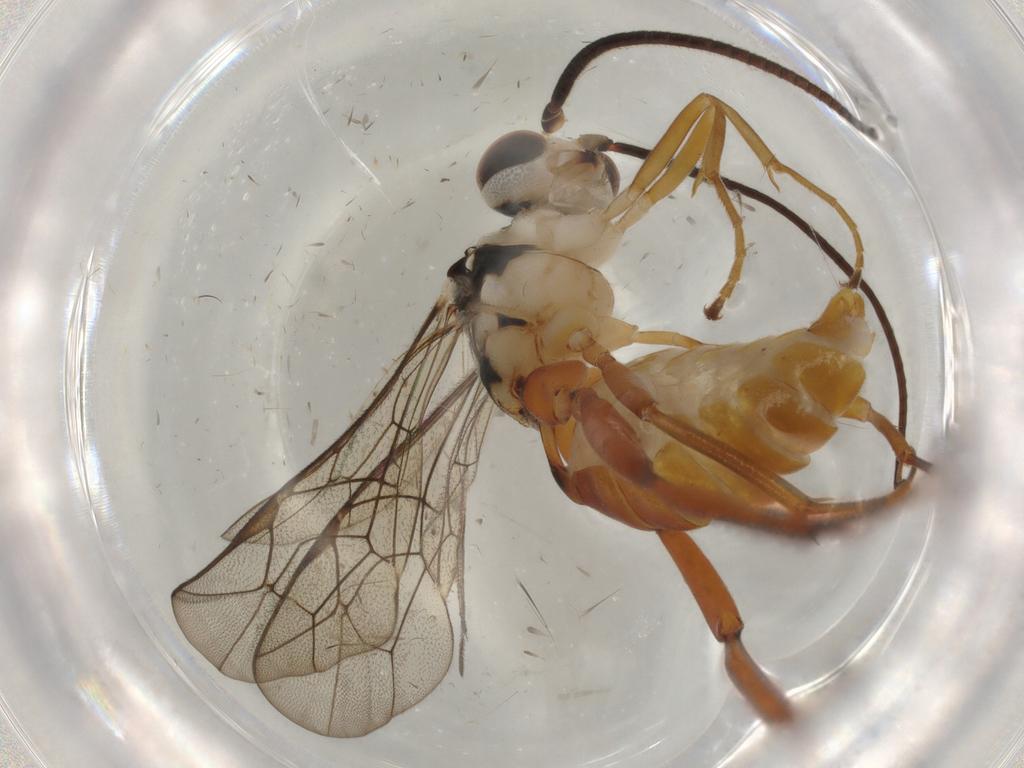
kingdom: Animalia
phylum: Arthropoda
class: Insecta
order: Hymenoptera
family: Bethylidae
